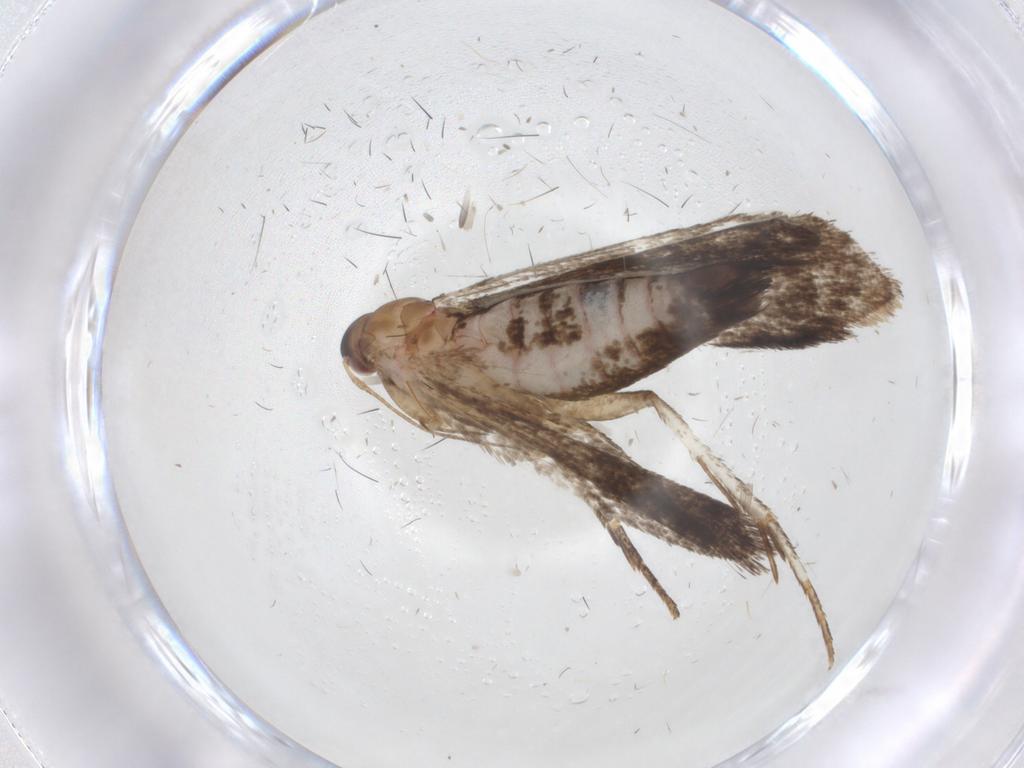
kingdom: Animalia
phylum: Arthropoda
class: Insecta
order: Lepidoptera
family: Gelechiidae
